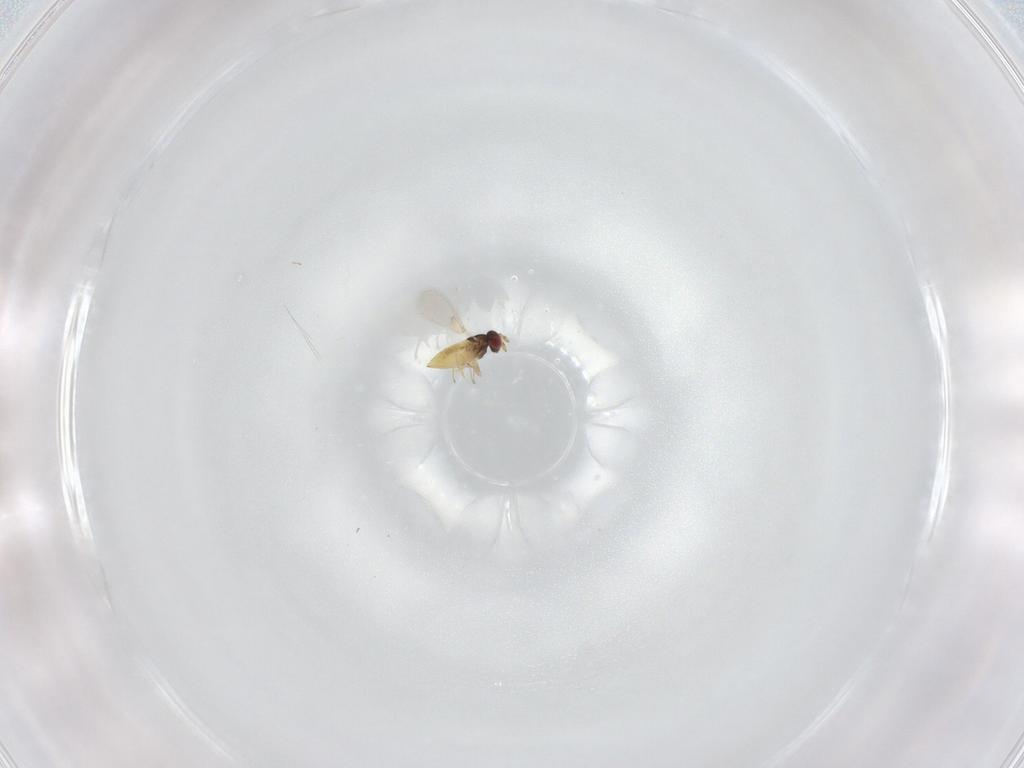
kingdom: Animalia
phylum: Arthropoda
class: Insecta
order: Hymenoptera
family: Trichogrammatidae
